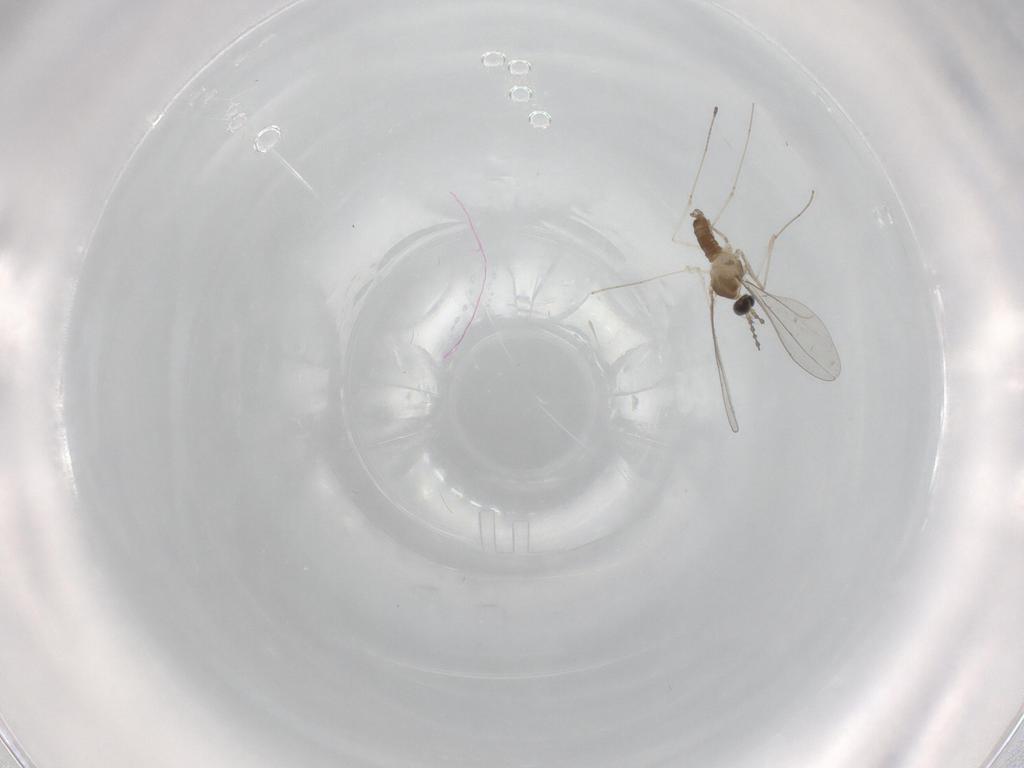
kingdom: Animalia
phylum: Arthropoda
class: Insecta
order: Diptera
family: Cecidomyiidae
